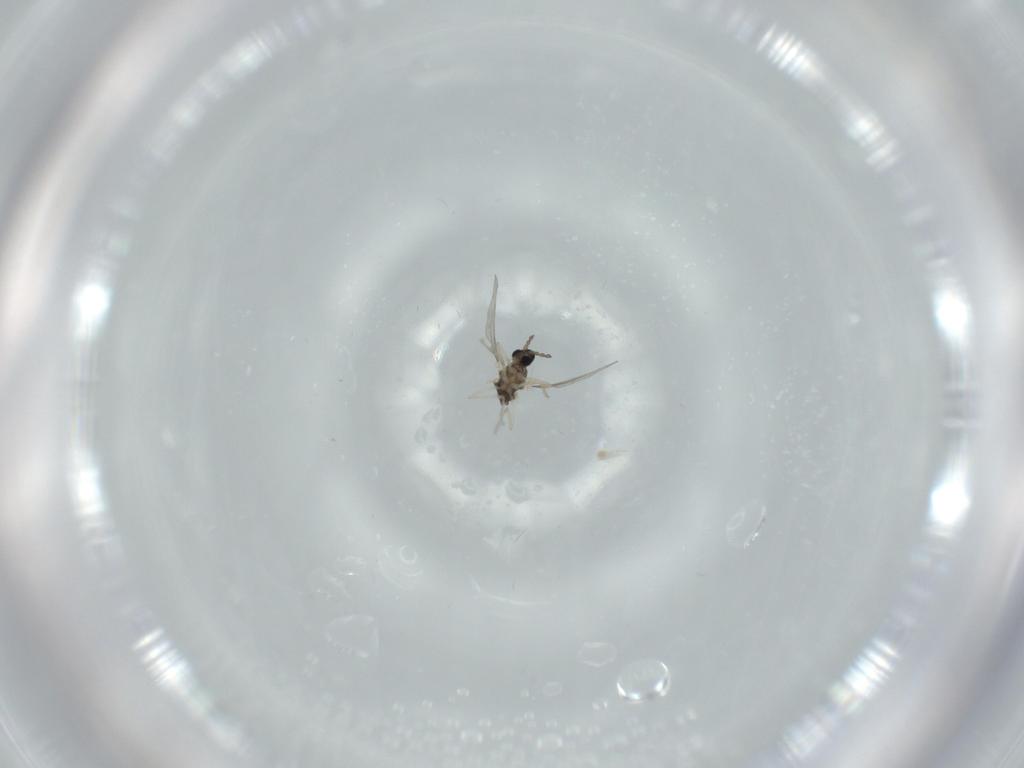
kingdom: Animalia
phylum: Arthropoda
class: Insecta
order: Diptera
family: Cecidomyiidae
